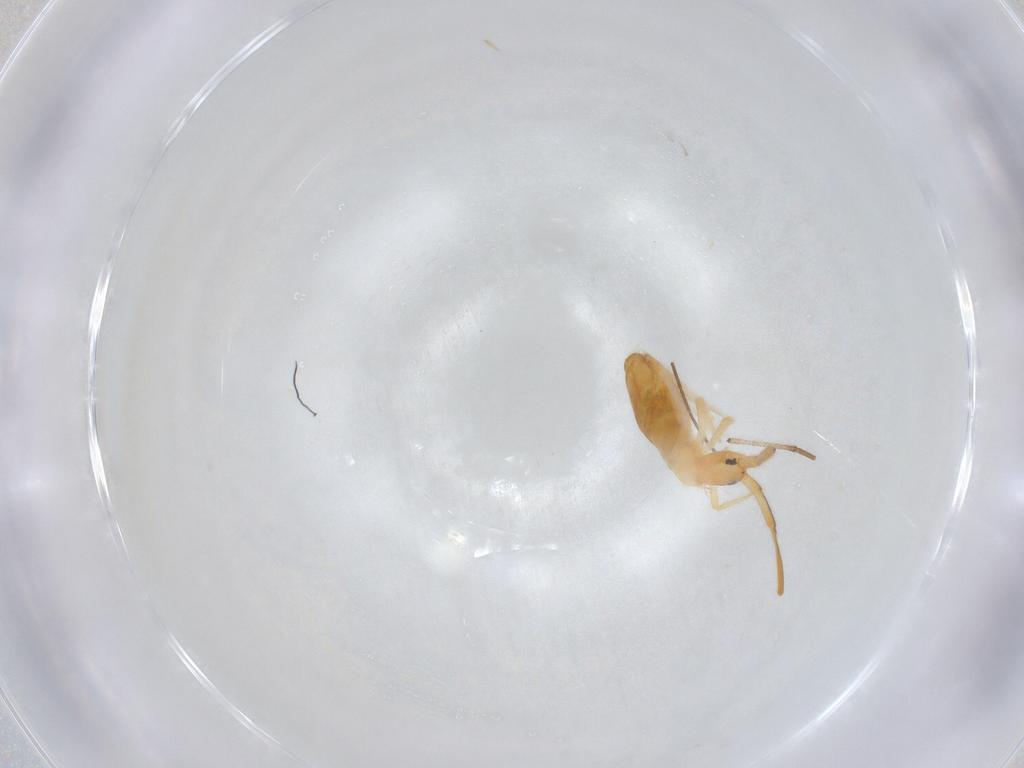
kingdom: Animalia
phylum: Arthropoda
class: Collembola
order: Entomobryomorpha
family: Entomobryidae
